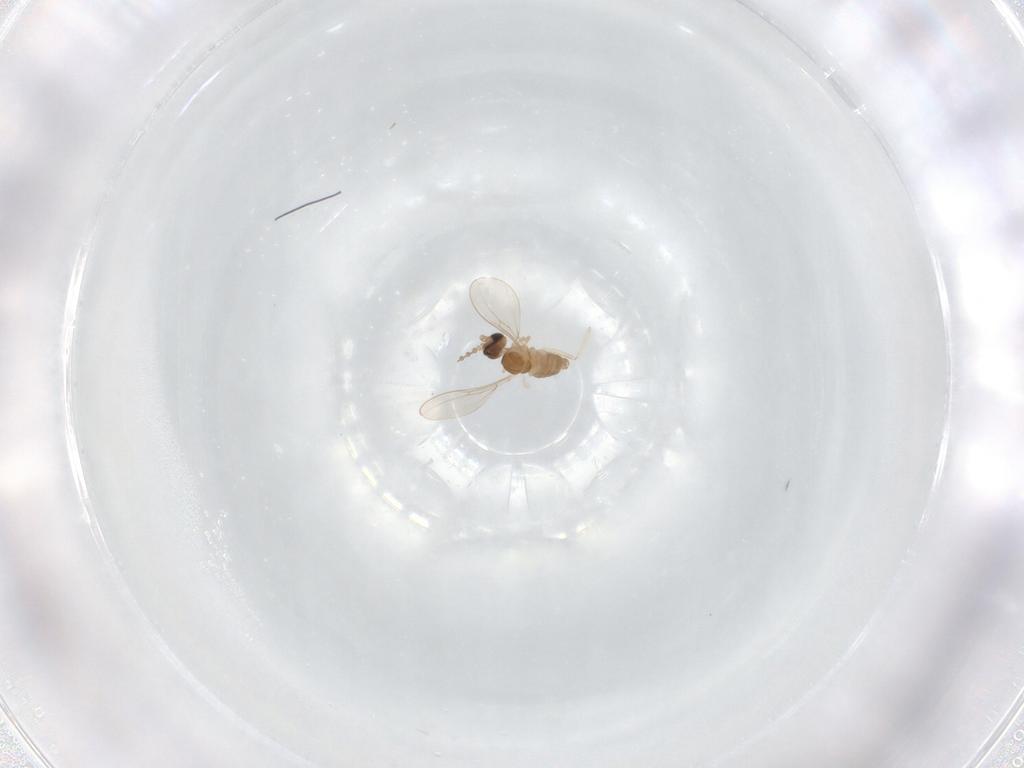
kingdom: Animalia
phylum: Arthropoda
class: Insecta
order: Diptera
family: Cecidomyiidae
